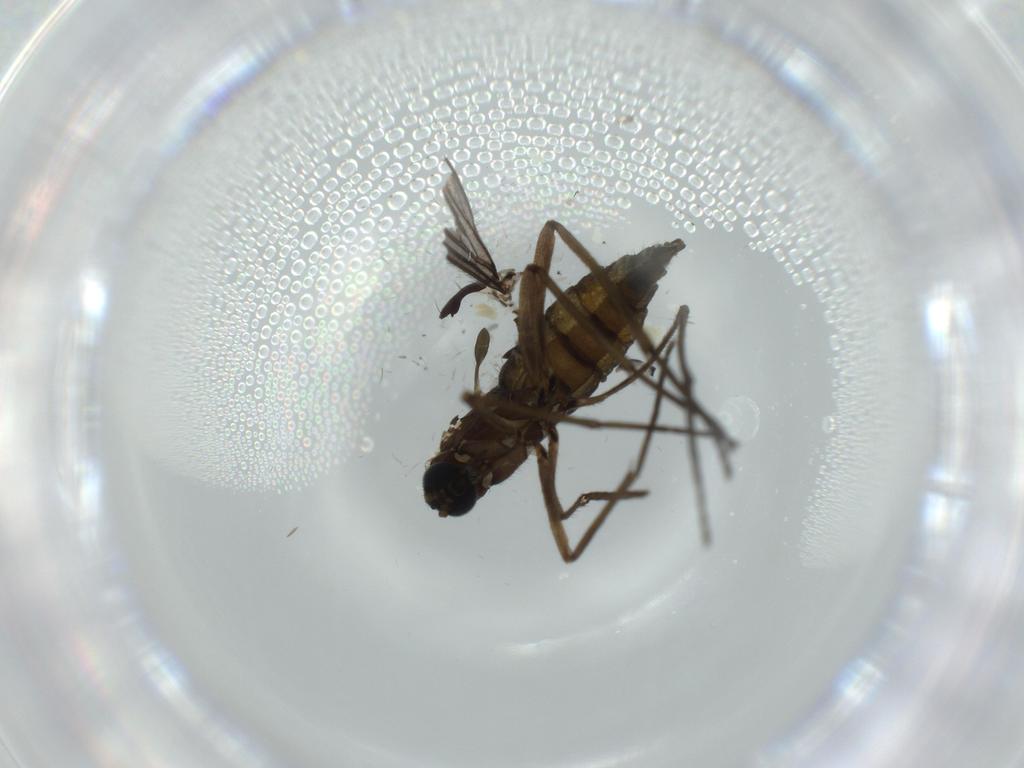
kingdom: Animalia
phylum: Arthropoda
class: Insecta
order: Diptera
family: Sciaridae
